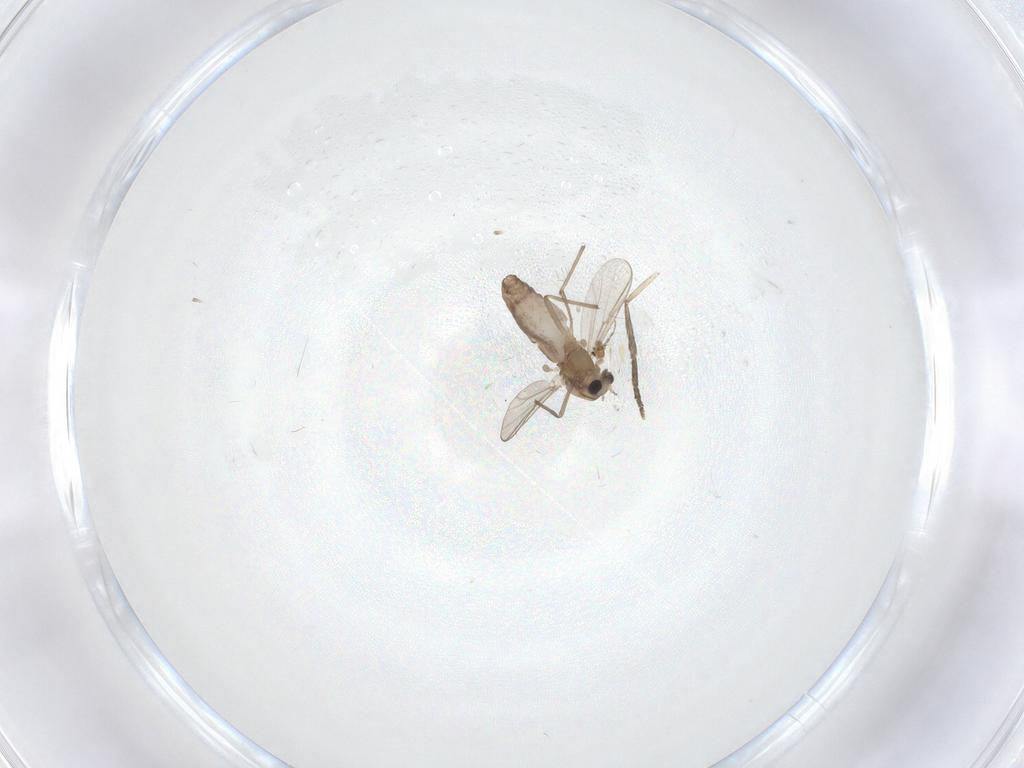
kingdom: Animalia
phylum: Arthropoda
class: Insecta
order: Diptera
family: Chironomidae
